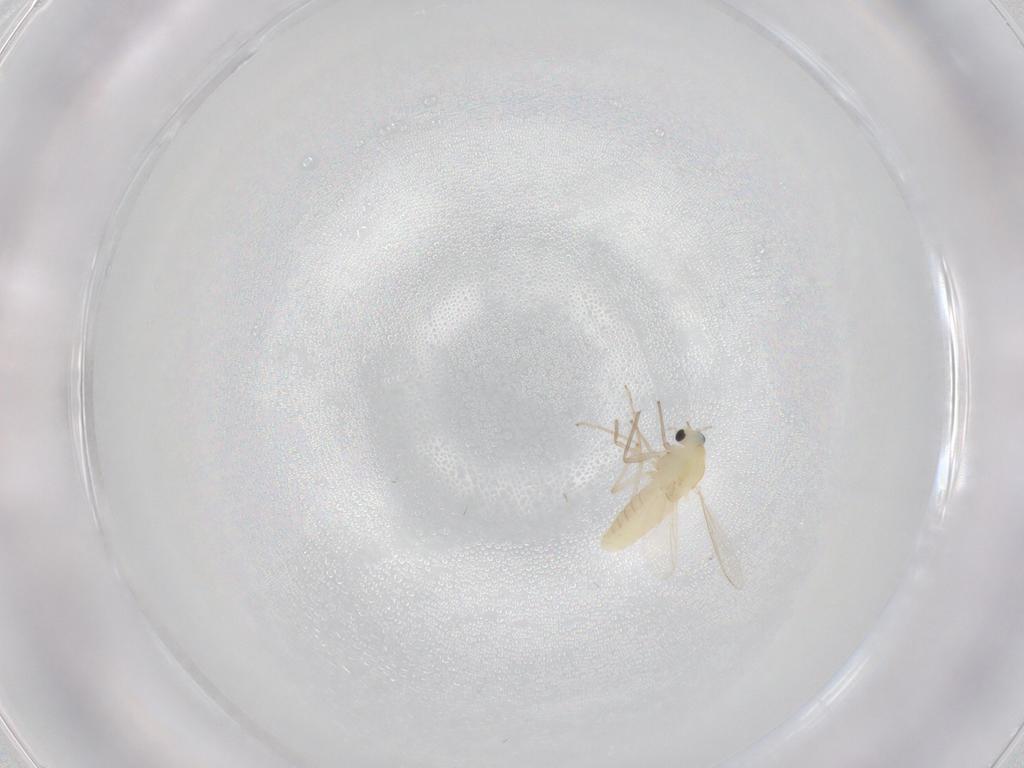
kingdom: Animalia
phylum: Arthropoda
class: Insecta
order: Diptera
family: Chironomidae
